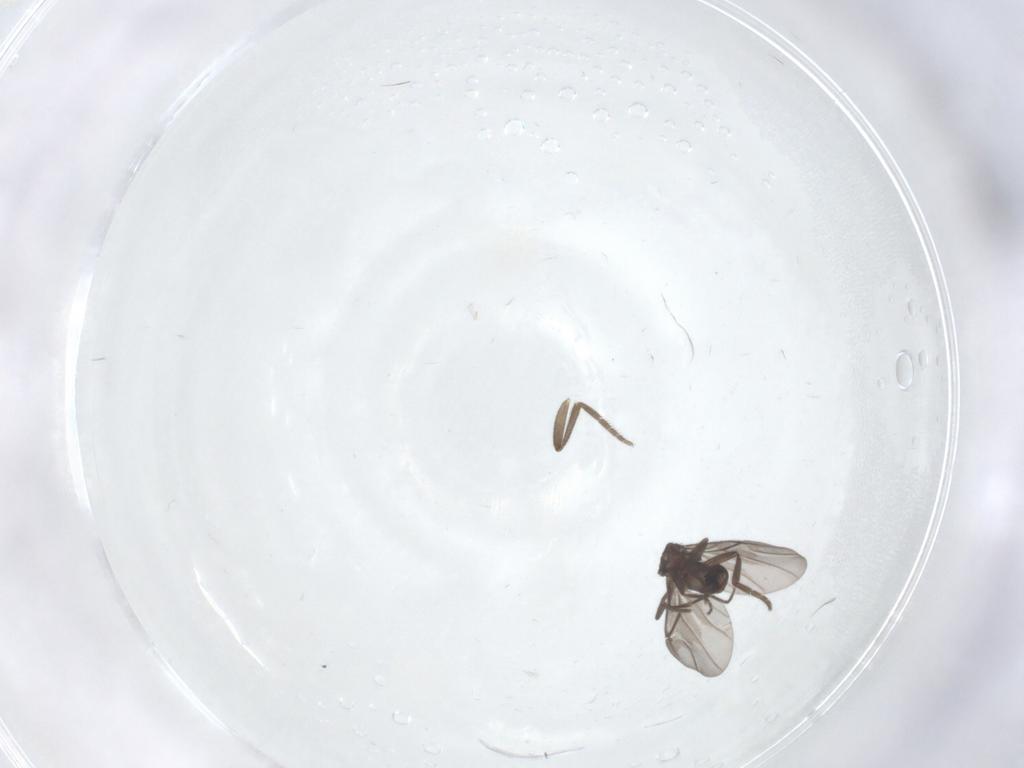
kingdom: Animalia
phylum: Arthropoda
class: Insecta
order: Diptera
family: Phoridae
